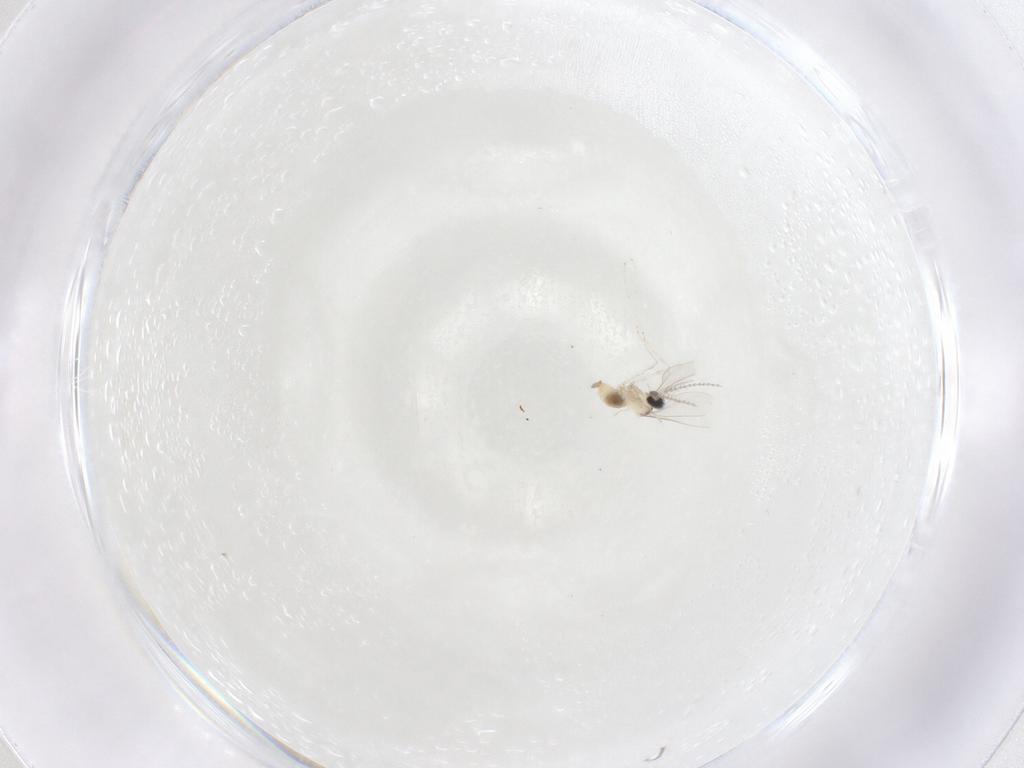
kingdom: Animalia
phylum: Arthropoda
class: Insecta
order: Diptera
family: Cecidomyiidae
